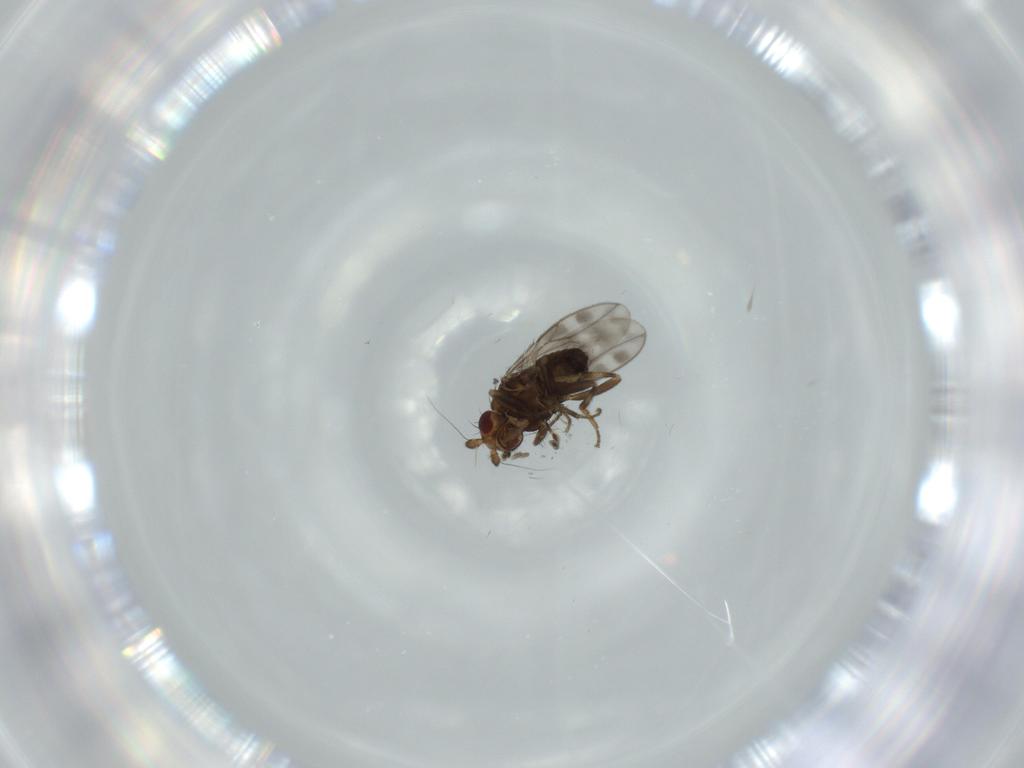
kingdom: Animalia
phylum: Arthropoda
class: Insecta
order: Diptera
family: Sphaeroceridae
